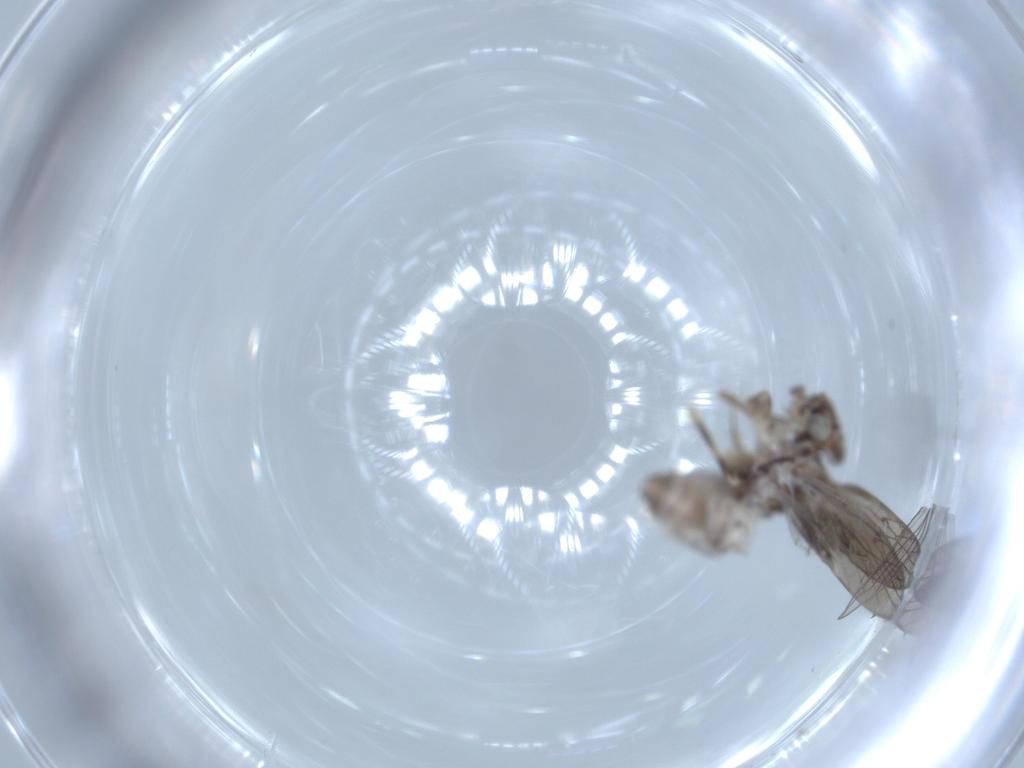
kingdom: Animalia
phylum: Arthropoda
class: Insecta
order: Psocodea
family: Lepidopsocidae
